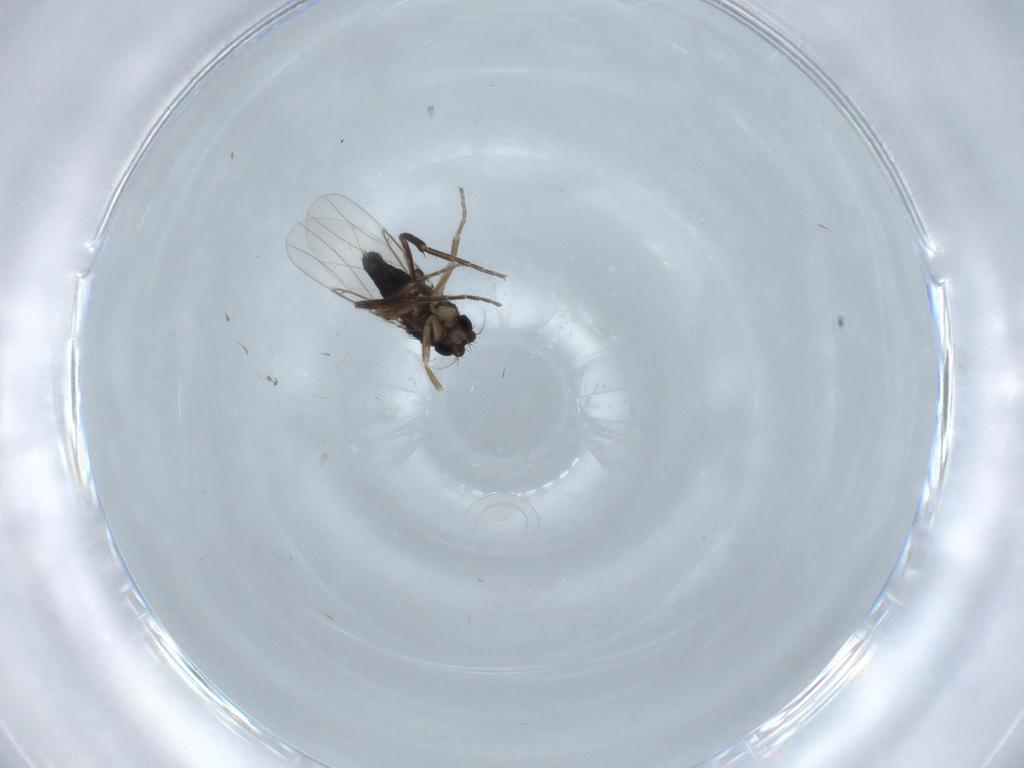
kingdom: Animalia
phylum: Arthropoda
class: Insecta
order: Diptera
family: Phoridae
